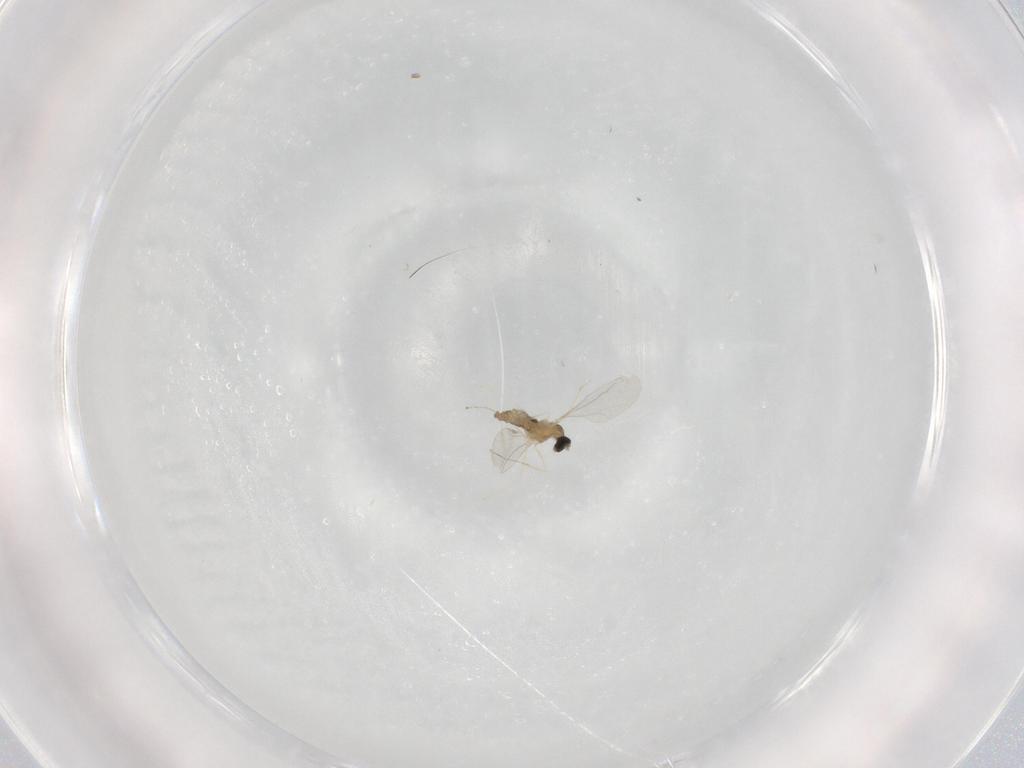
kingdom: Animalia
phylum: Arthropoda
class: Insecta
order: Diptera
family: Cecidomyiidae
